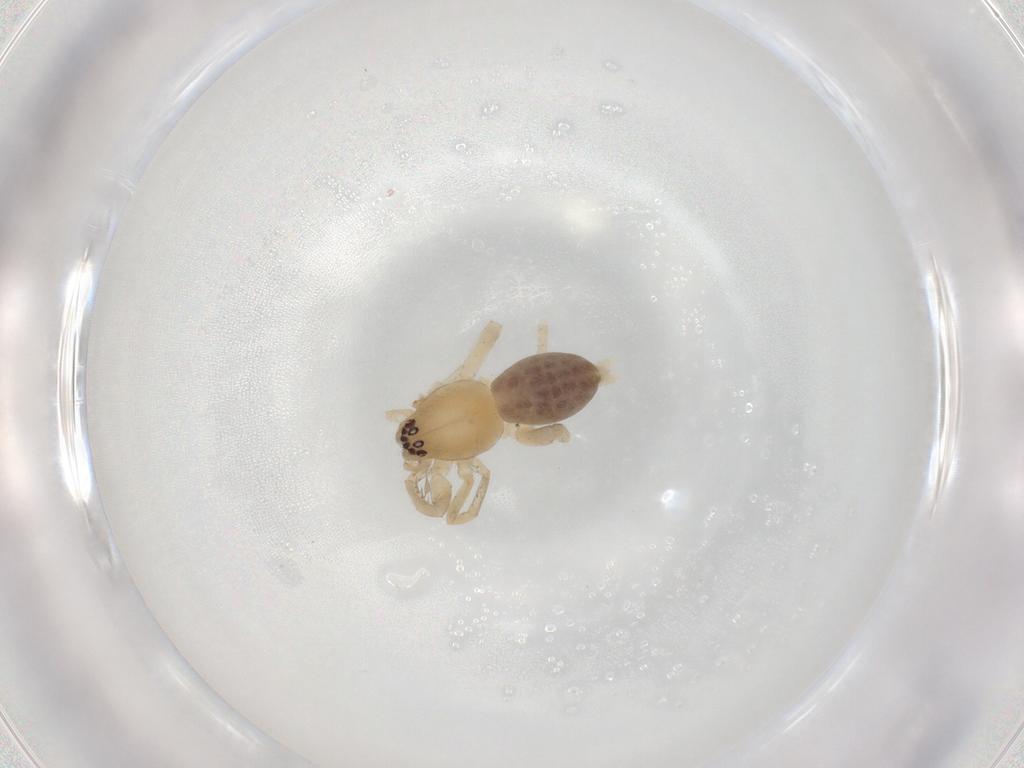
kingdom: Animalia
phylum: Arthropoda
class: Arachnida
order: Araneae
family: Anyphaenidae
